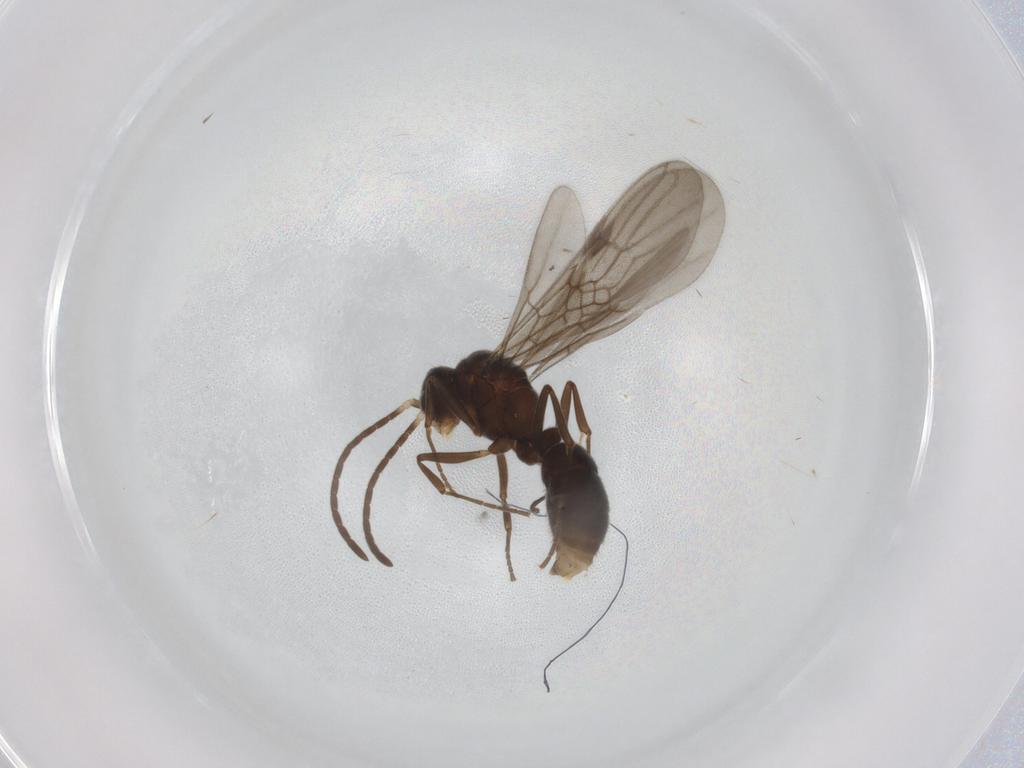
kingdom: Animalia
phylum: Arthropoda
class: Insecta
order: Hymenoptera
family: Formicidae
